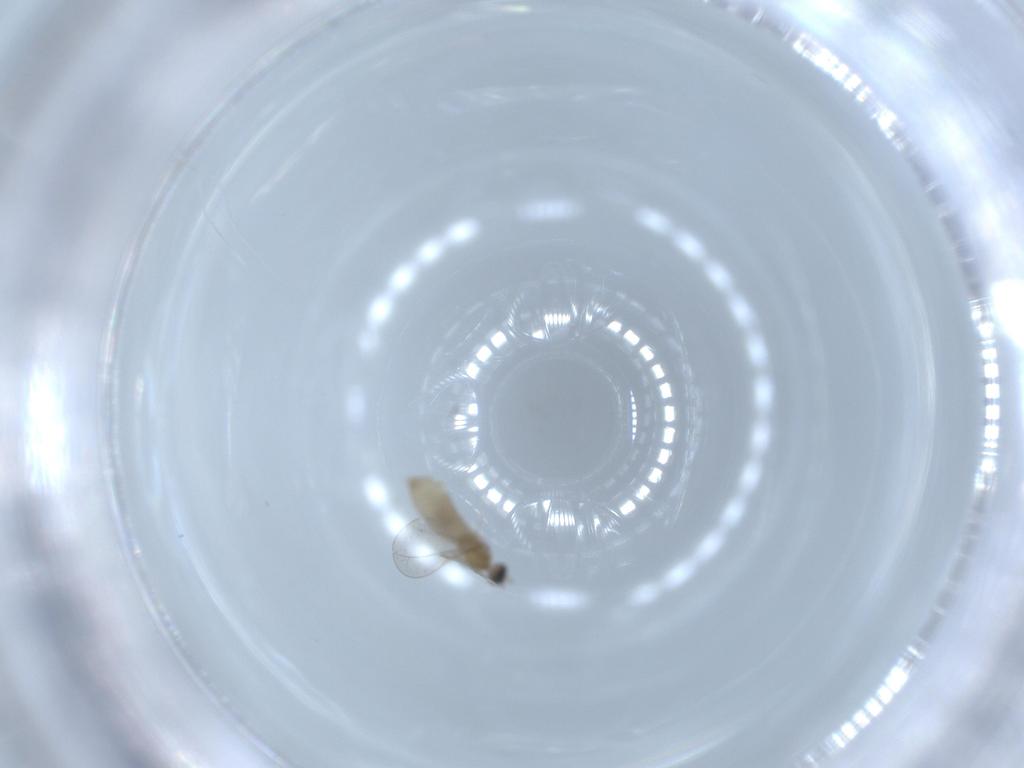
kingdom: Animalia
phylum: Arthropoda
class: Insecta
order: Diptera
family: Cecidomyiidae
